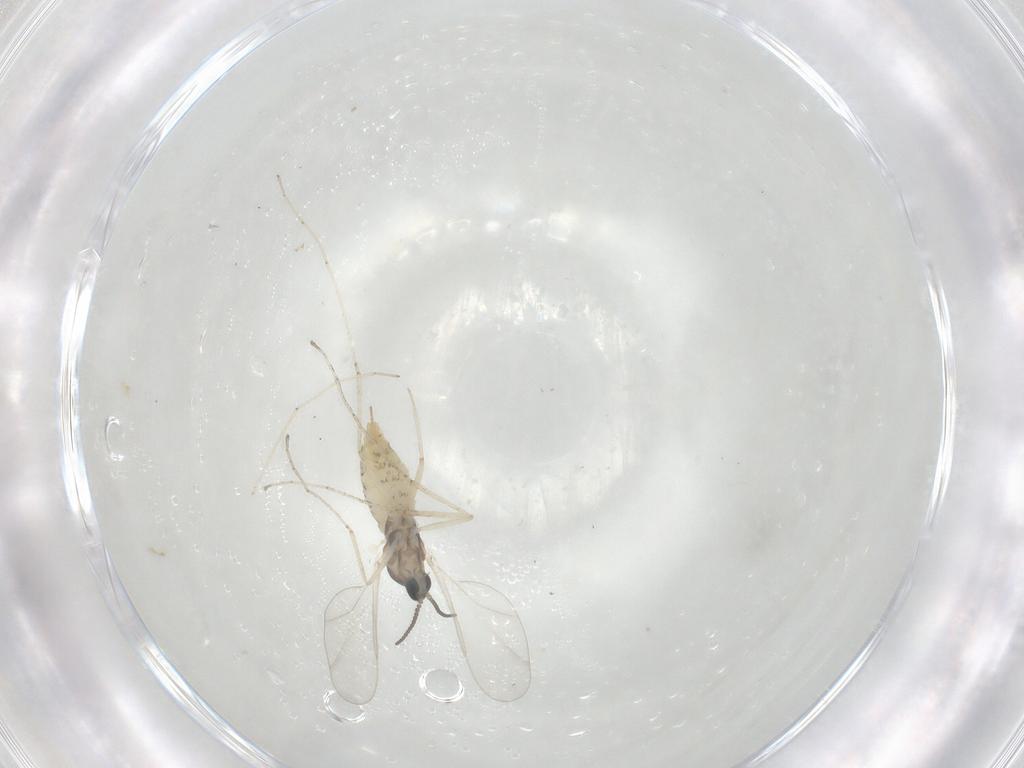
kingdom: Animalia
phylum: Arthropoda
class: Insecta
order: Diptera
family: Cecidomyiidae
